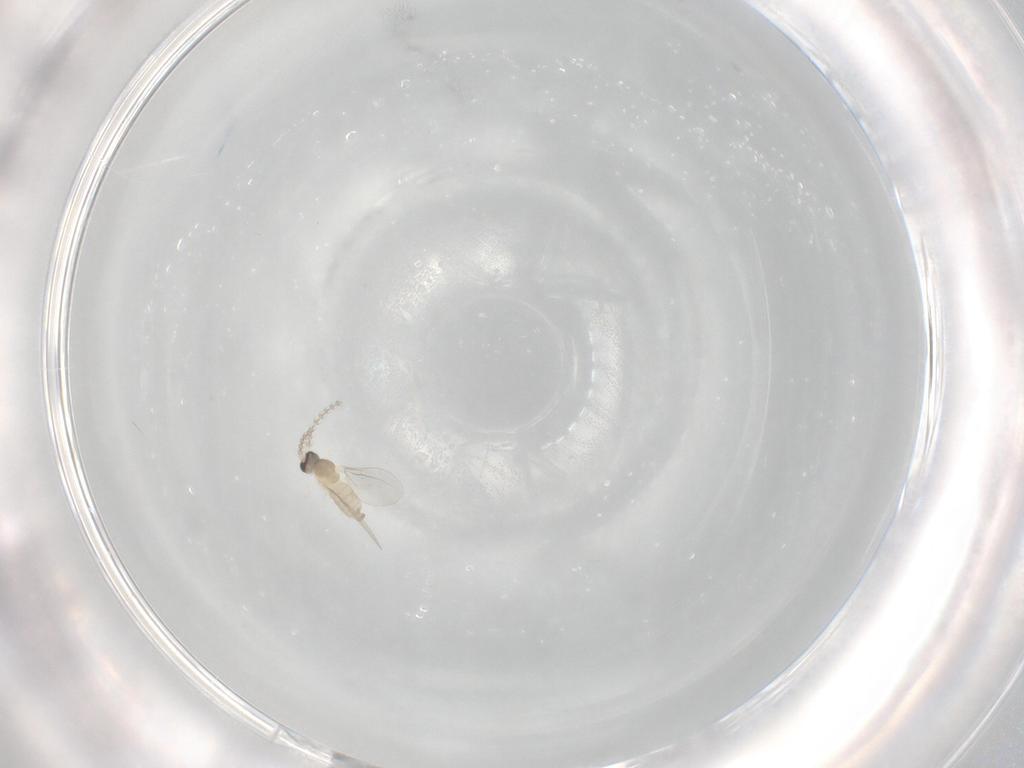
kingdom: Animalia
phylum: Arthropoda
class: Insecta
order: Diptera
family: Cecidomyiidae
